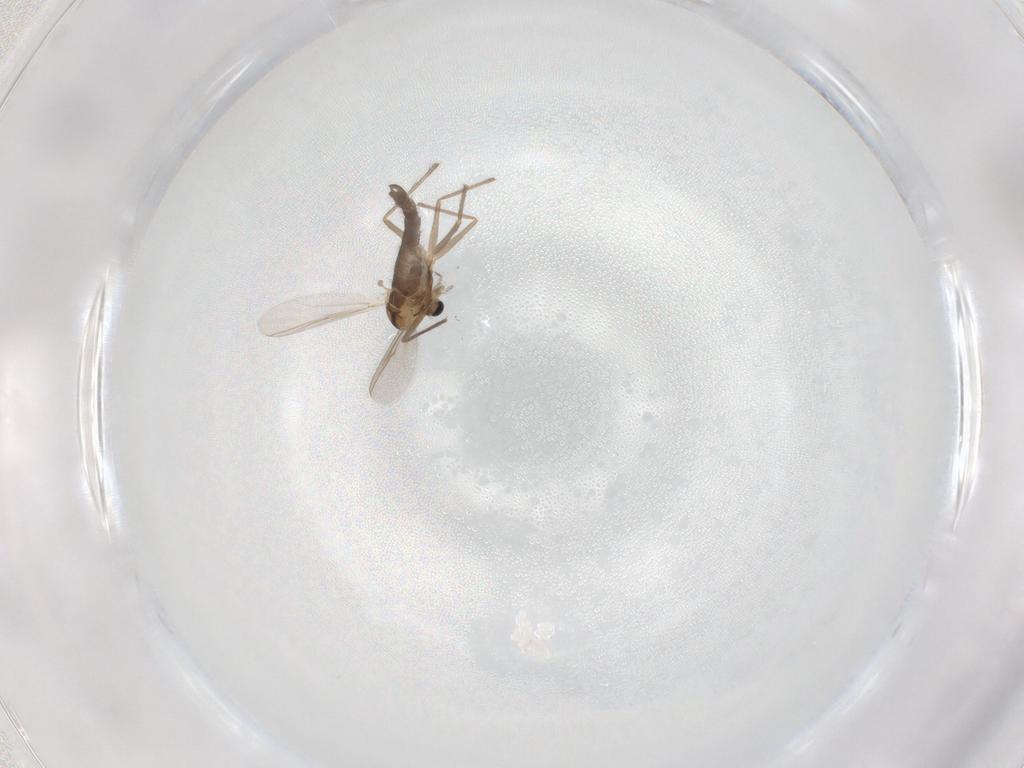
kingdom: Animalia
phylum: Arthropoda
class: Insecta
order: Diptera
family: Chironomidae
